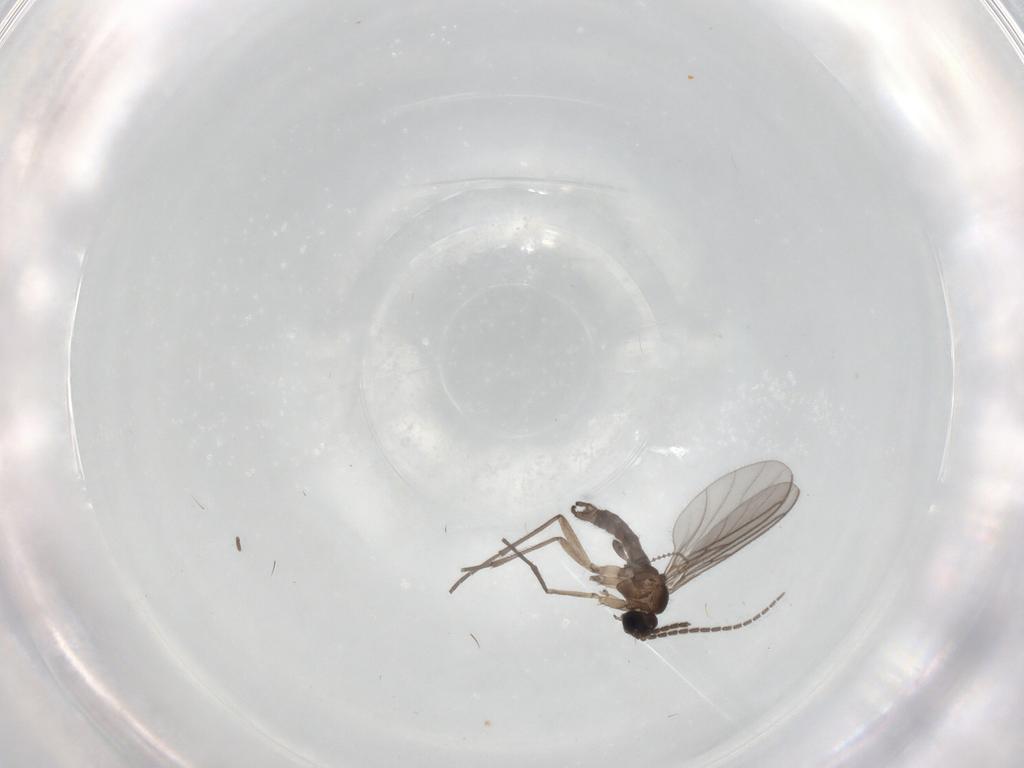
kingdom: Animalia
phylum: Arthropoda
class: Insecta
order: Diptera
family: Sciaridae
